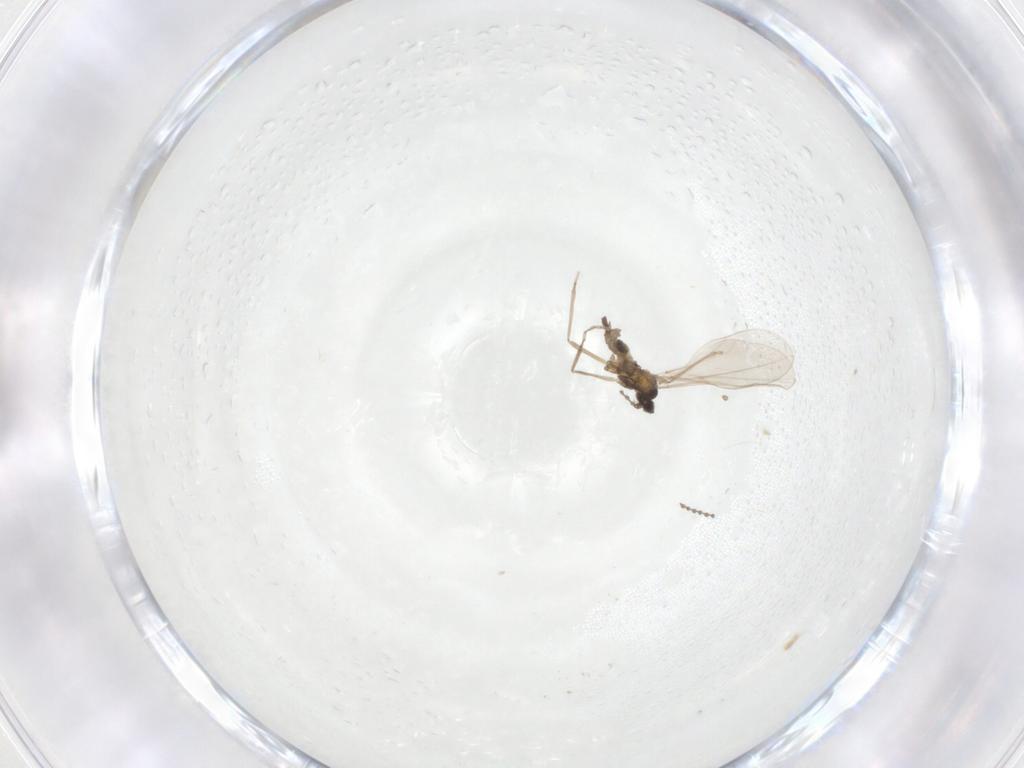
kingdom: Animalia
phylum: Arthropoda
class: Insecta
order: Diptera
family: Cecidomyiidae
